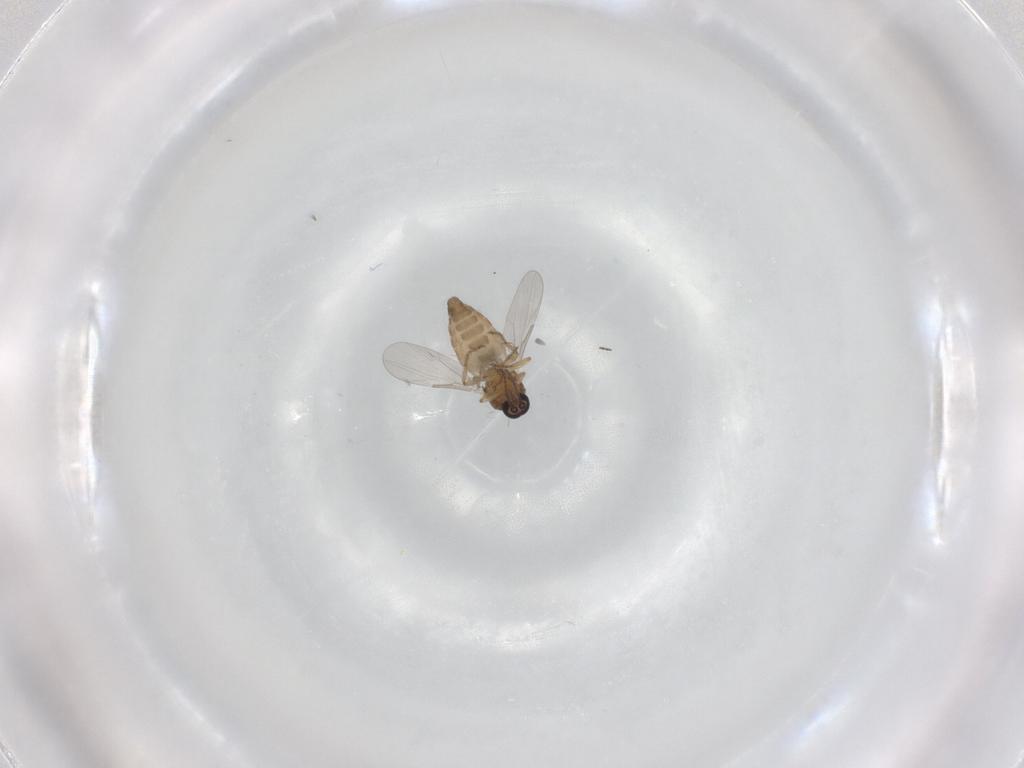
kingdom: Animalia
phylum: Arthropoda
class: Insecta
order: Diptera
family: Ceratopogonidae
